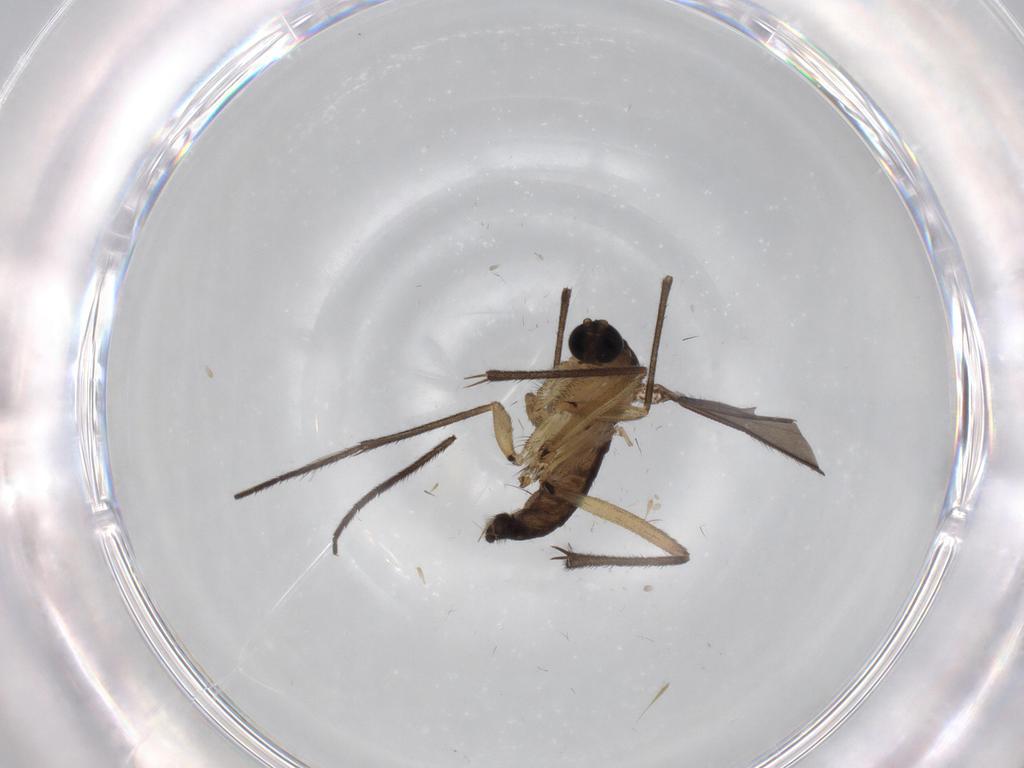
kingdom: Animalia
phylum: Arthropoda
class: Insecta
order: Diptera
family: Sciaridae
